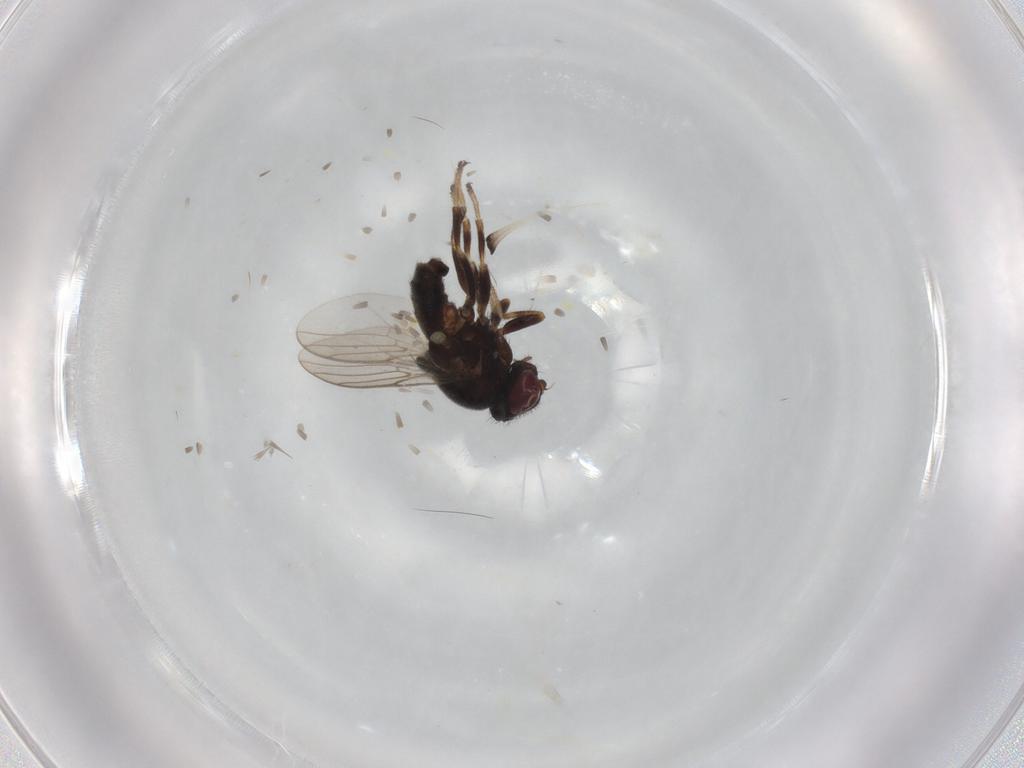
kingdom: Animalia
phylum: Arthropoda
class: Insecta
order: Diptera
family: Chloropidae
